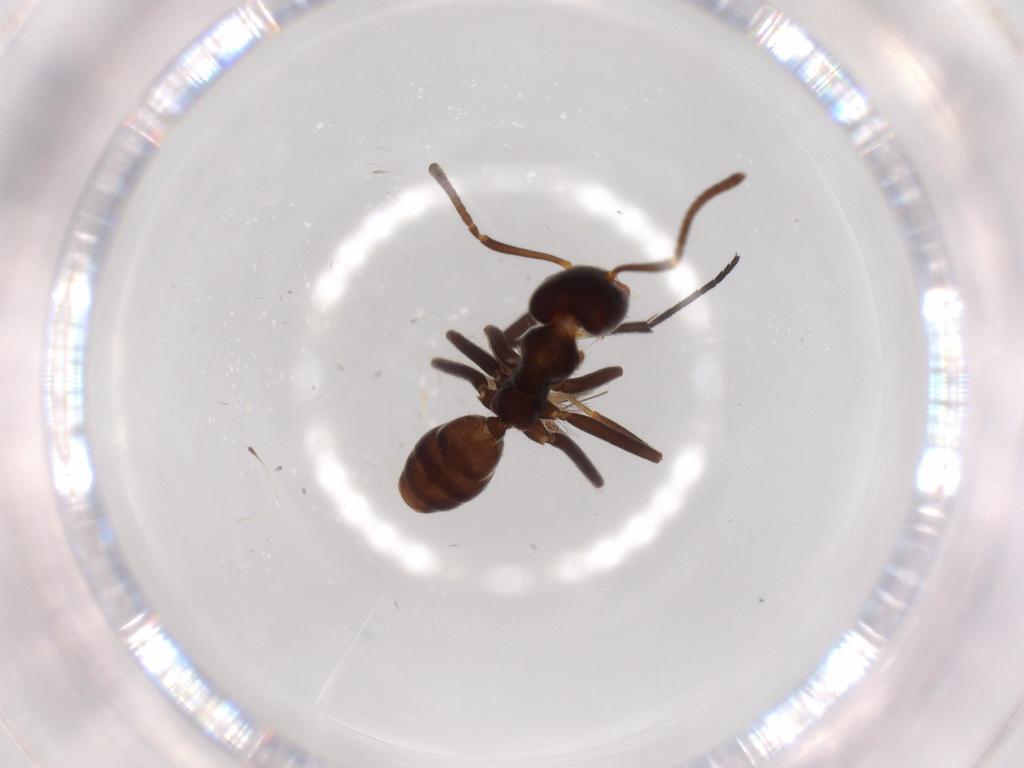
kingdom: Animalia
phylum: Arthropoda
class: Insecta
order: Hymenoptera
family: Formicidae
